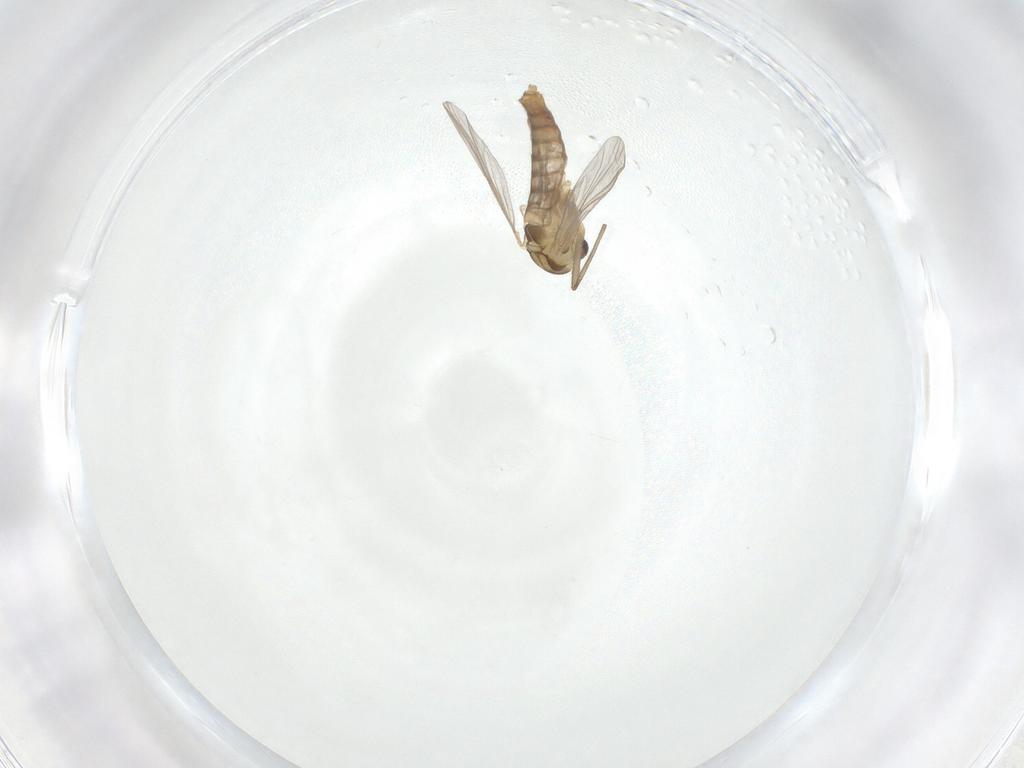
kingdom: Animalia
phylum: Arthropoda
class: Insecta
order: Diptera
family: Chironomidae
